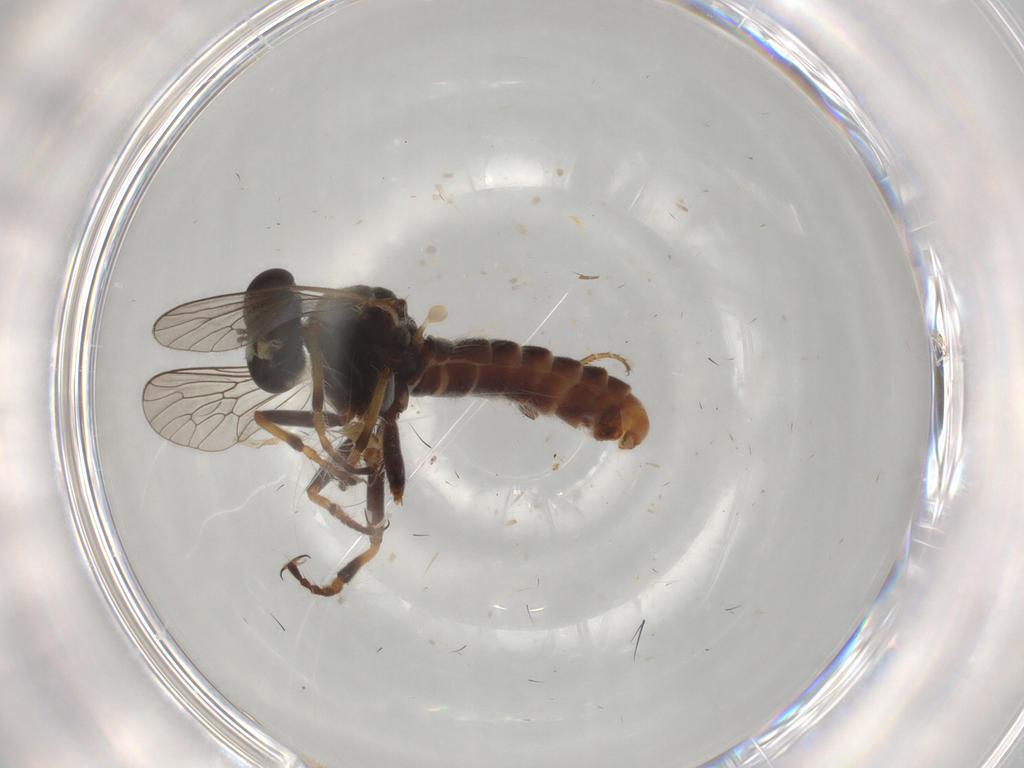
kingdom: Animalia
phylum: Arthropoda
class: Insecta
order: Diptera
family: Asilidae
